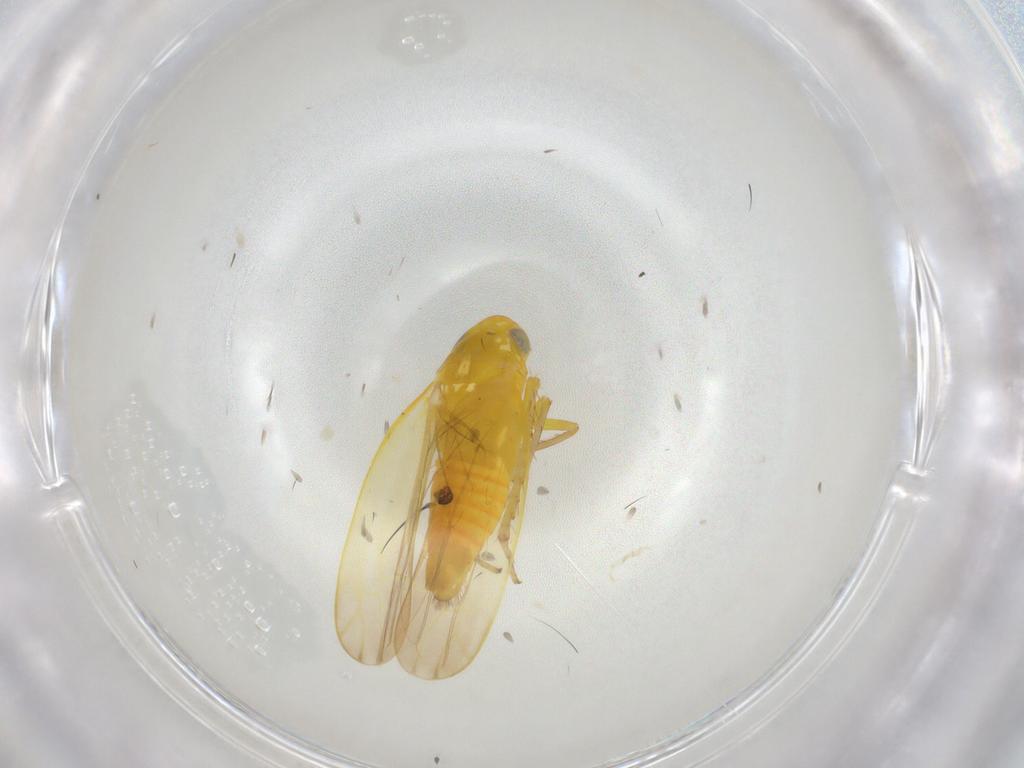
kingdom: Animalia
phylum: Arthropoda
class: Insecta
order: Hemiptera
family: Cicadellidae
